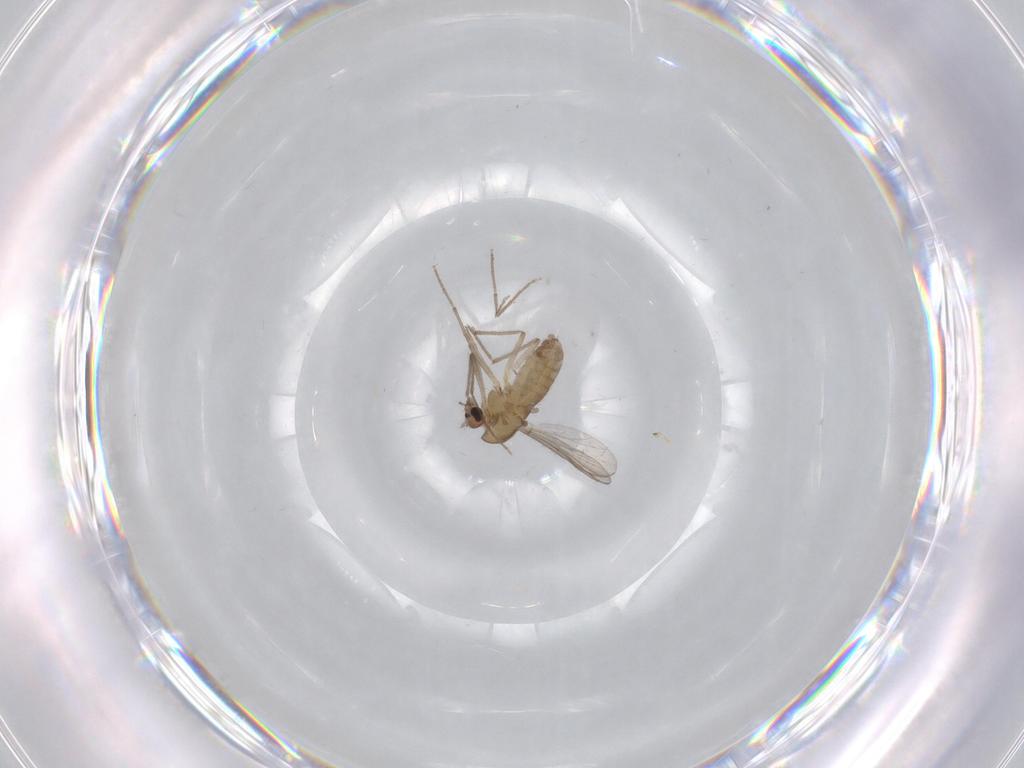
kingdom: Animalia
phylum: Arthropoda
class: Insecta
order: Diptera
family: Chironomidae
